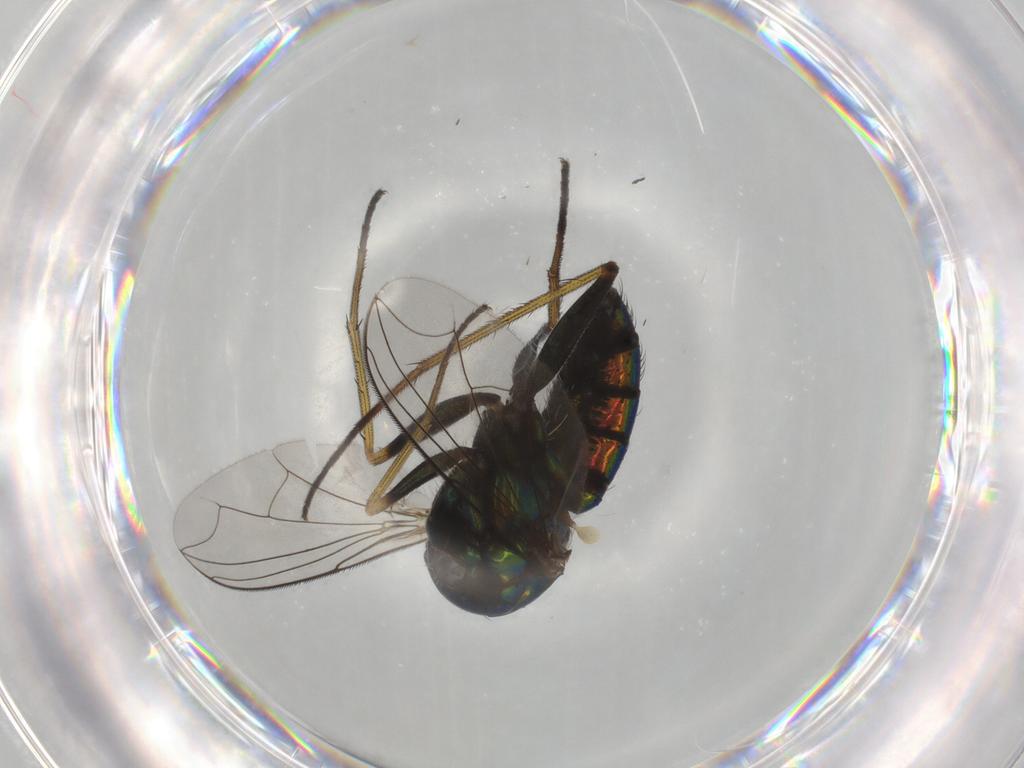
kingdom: Animalia
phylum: Arthropoda
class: Insecta
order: Diptera
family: Dolichopodidae
